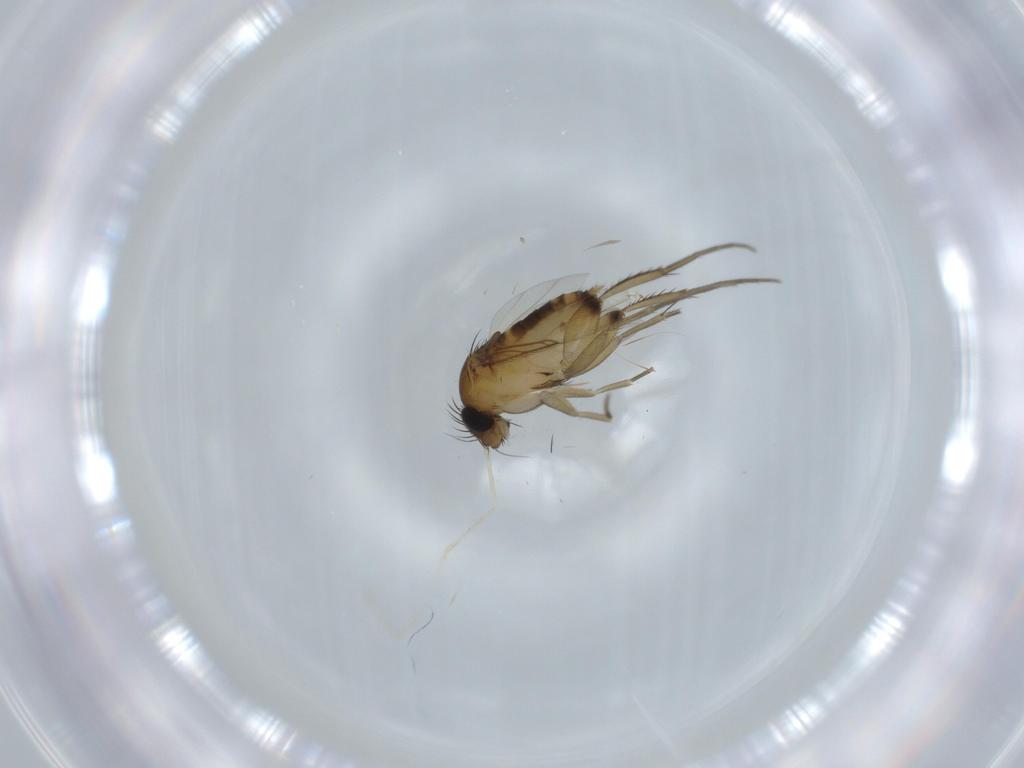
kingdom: Animalia
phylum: Arthropoda
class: Insecta
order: Diptera
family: Phoridae
